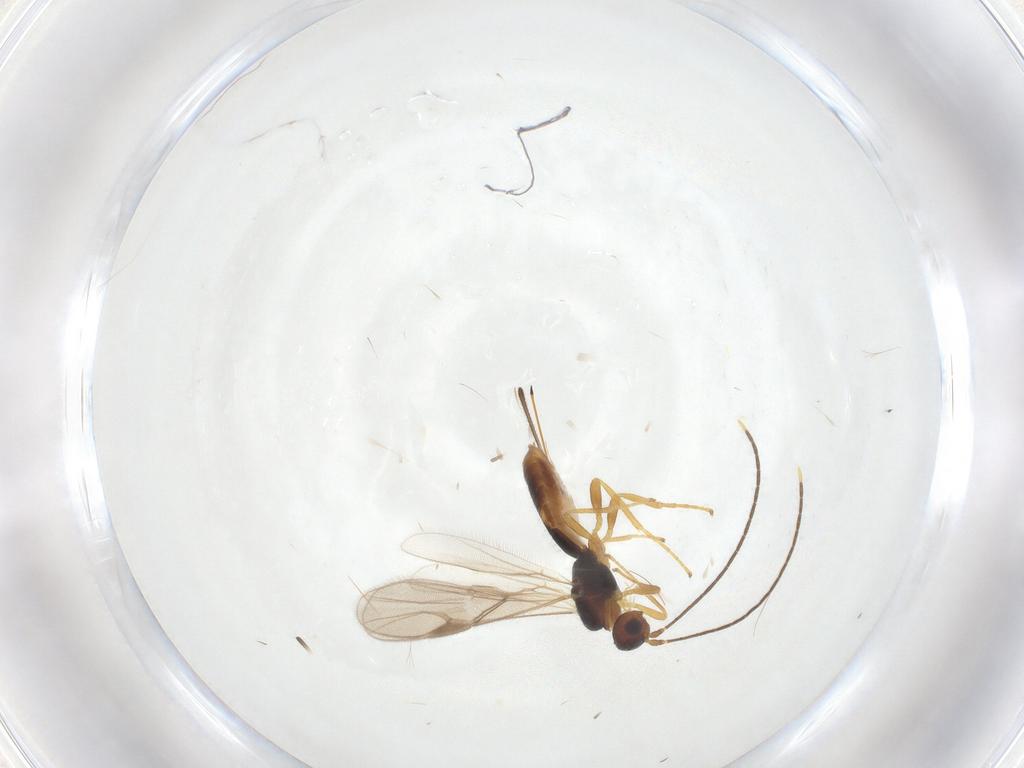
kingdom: Animalia
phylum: Arthropoda
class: Insecta
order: Hymenoptera
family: Braconidae
